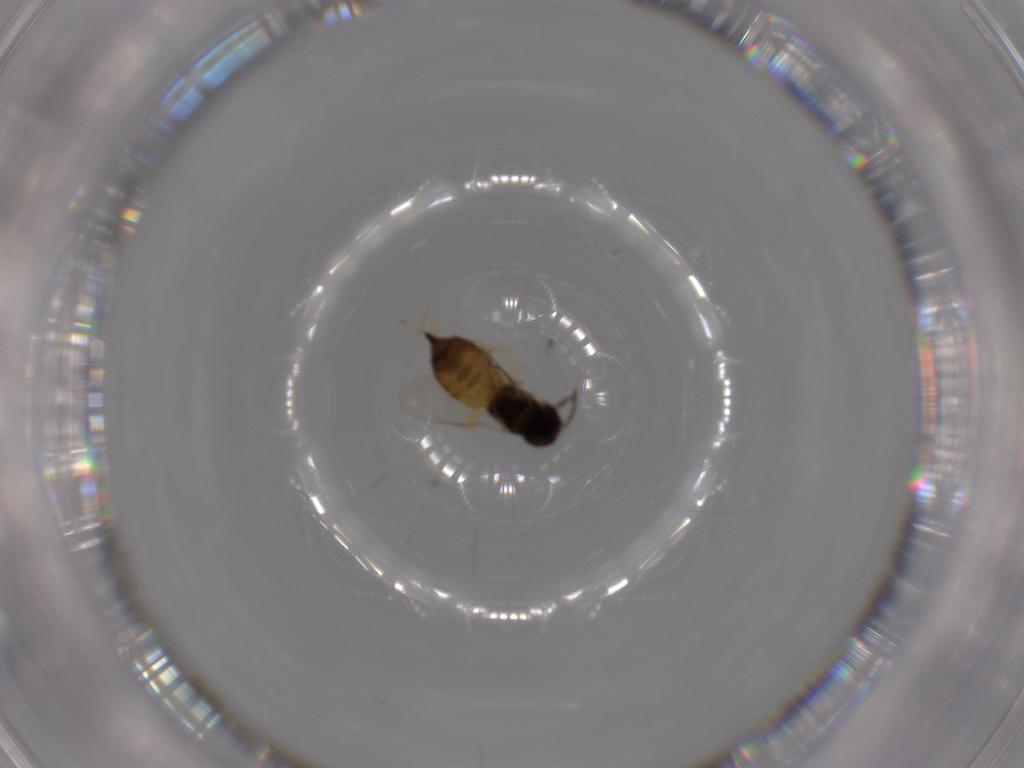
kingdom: Animalia
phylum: Arthropoda
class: Insecta
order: Hymenoptera
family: Eulophidae
